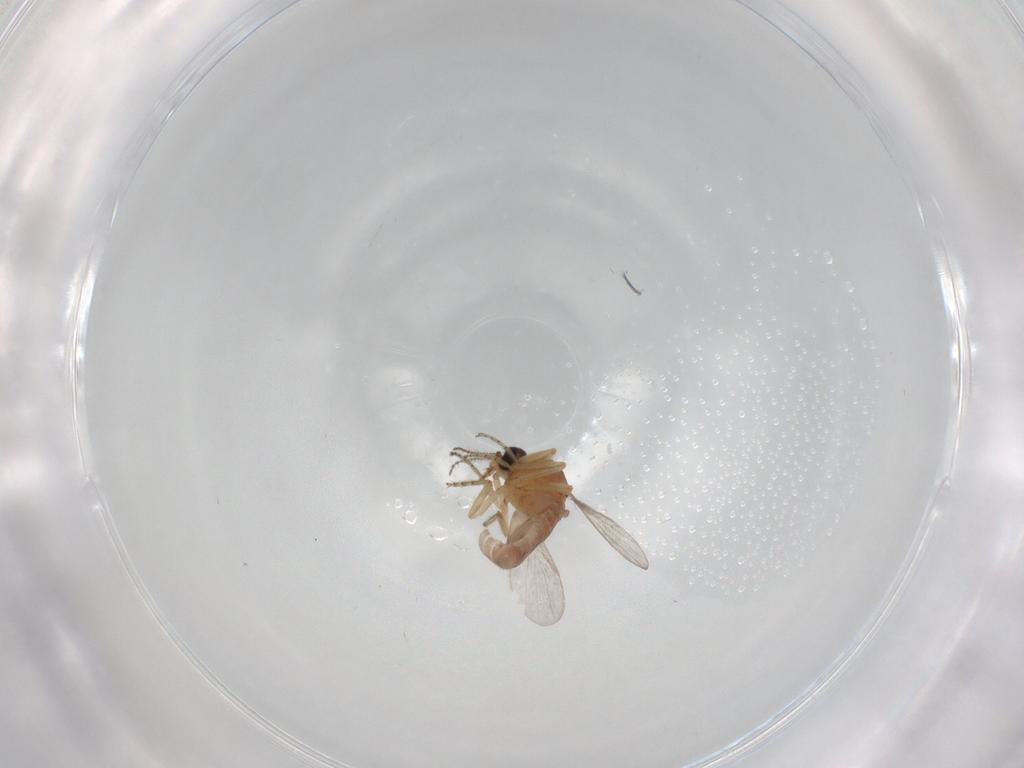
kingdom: Animalia
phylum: Arthropoda
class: Insecta
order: Diptera
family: Ceratopogonidae
